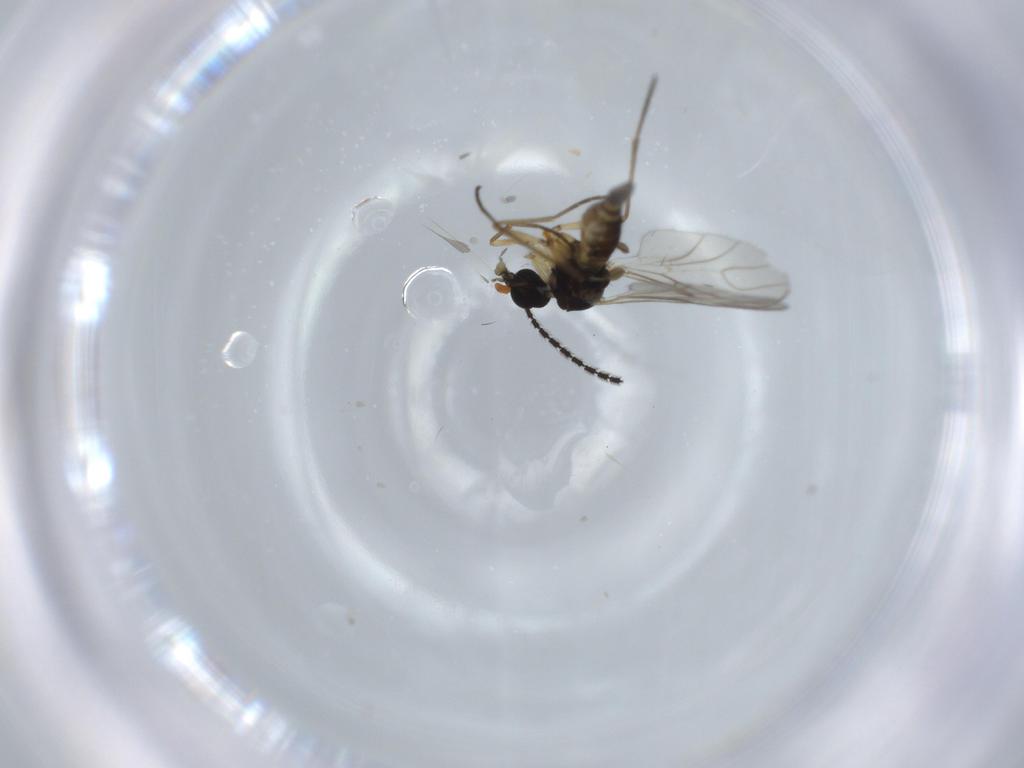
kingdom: Animalia
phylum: Arthropoda
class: Insecta
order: Diptera
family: Sciaridae
